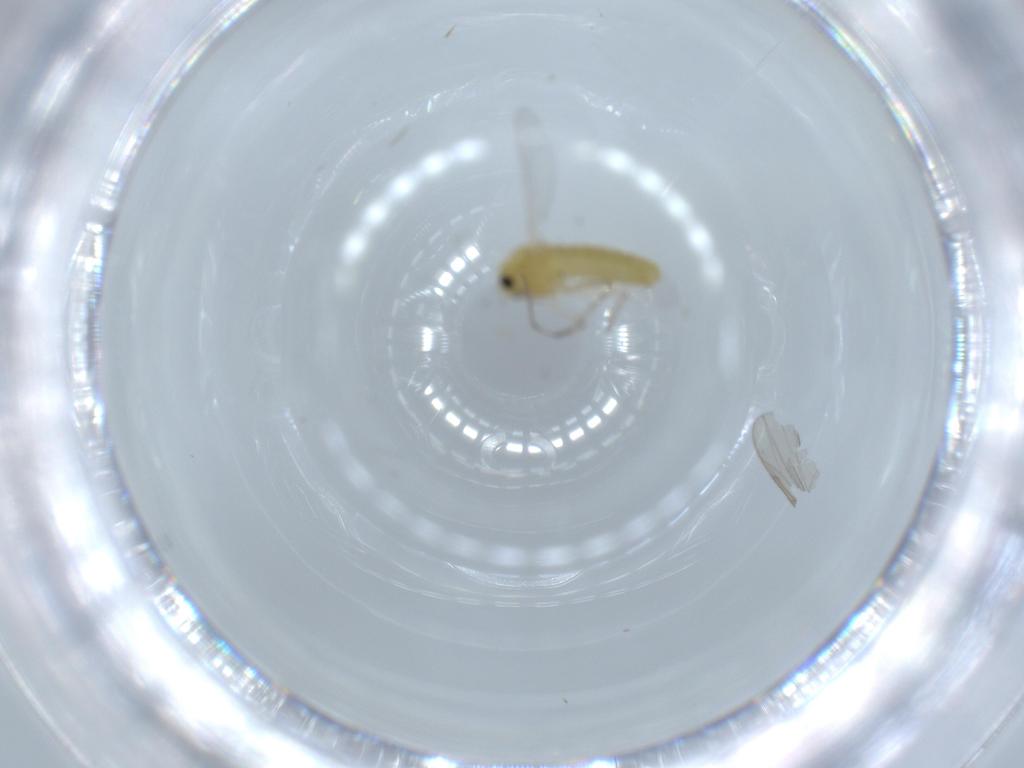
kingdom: Animalia
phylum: Arthropoda
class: Insecta
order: Diptera
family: Chironomidae
